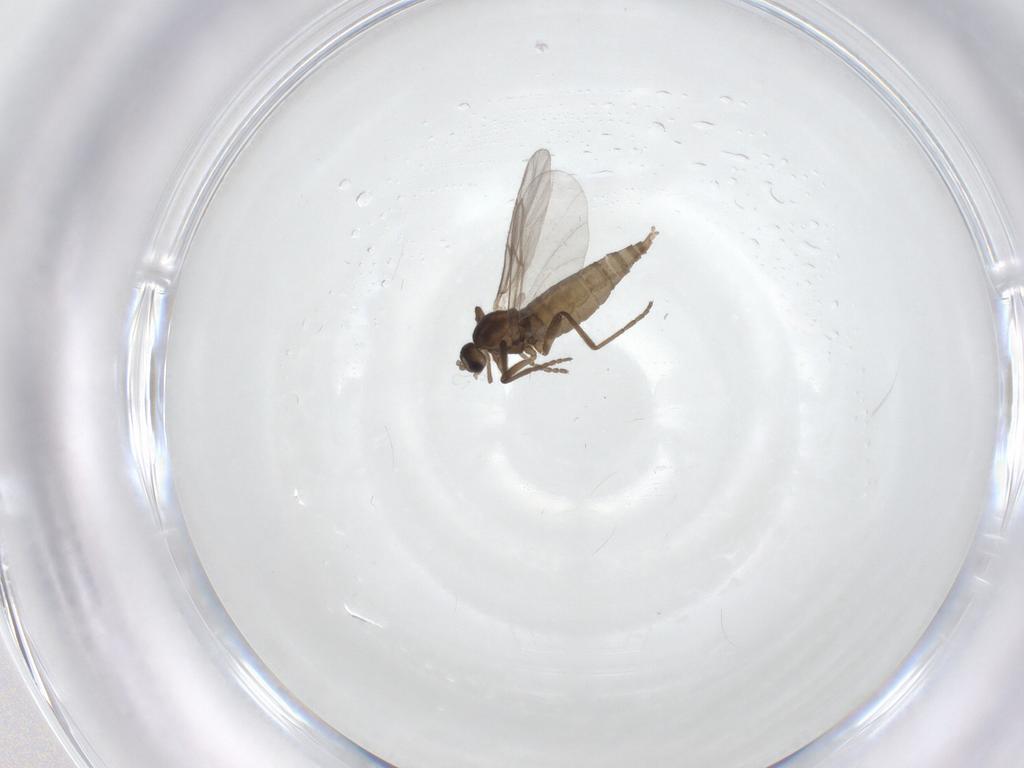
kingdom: Animalia
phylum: Arthropoda
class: Insecta
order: Diptera
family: Cecidomyiidae
